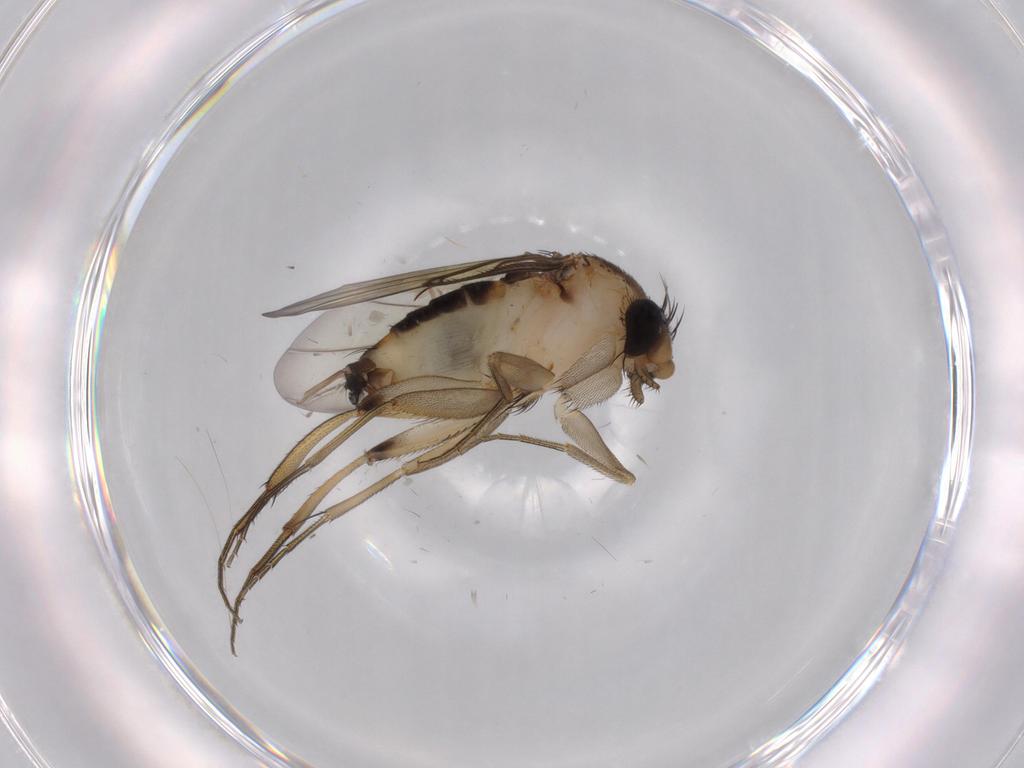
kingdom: Animalia
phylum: Arthropoda
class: Insecta
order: Diptera
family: Phoridae
